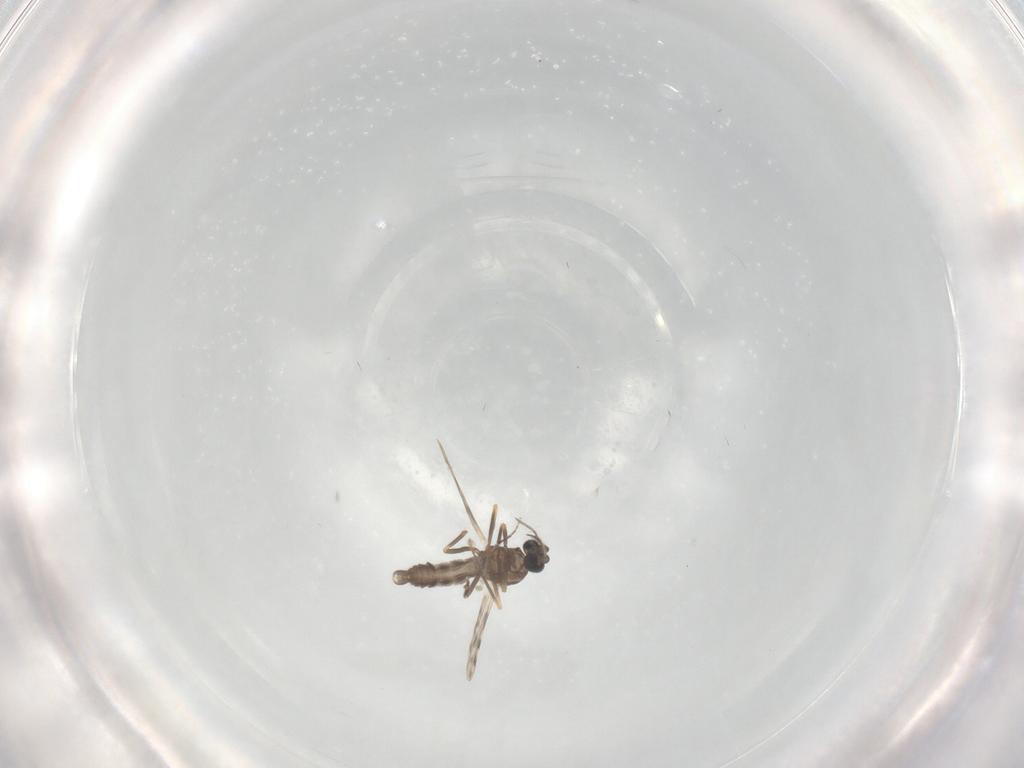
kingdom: Animalia
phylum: Arthropoda
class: Insecta
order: Diptera
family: Ceratopogonidae
